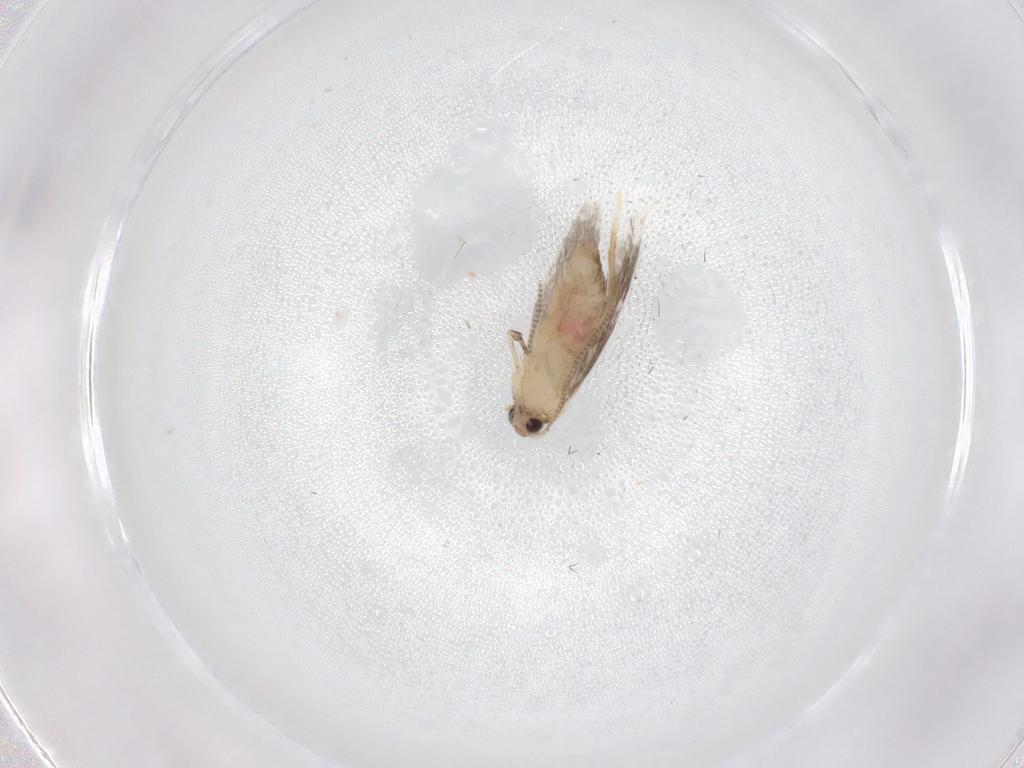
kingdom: Animalia
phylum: Arthropoda
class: Insecta
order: Lepidoptera
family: Tineidae
